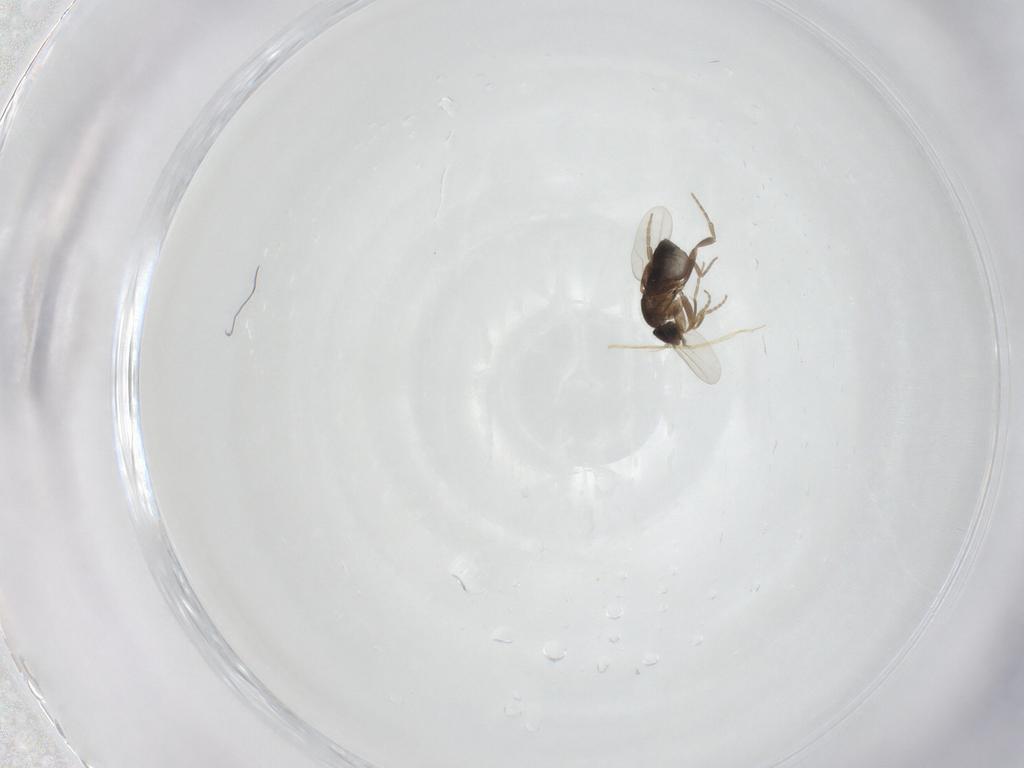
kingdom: Animalia
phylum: Arthropoda
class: Insecta
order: Diptera
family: Phoridae
